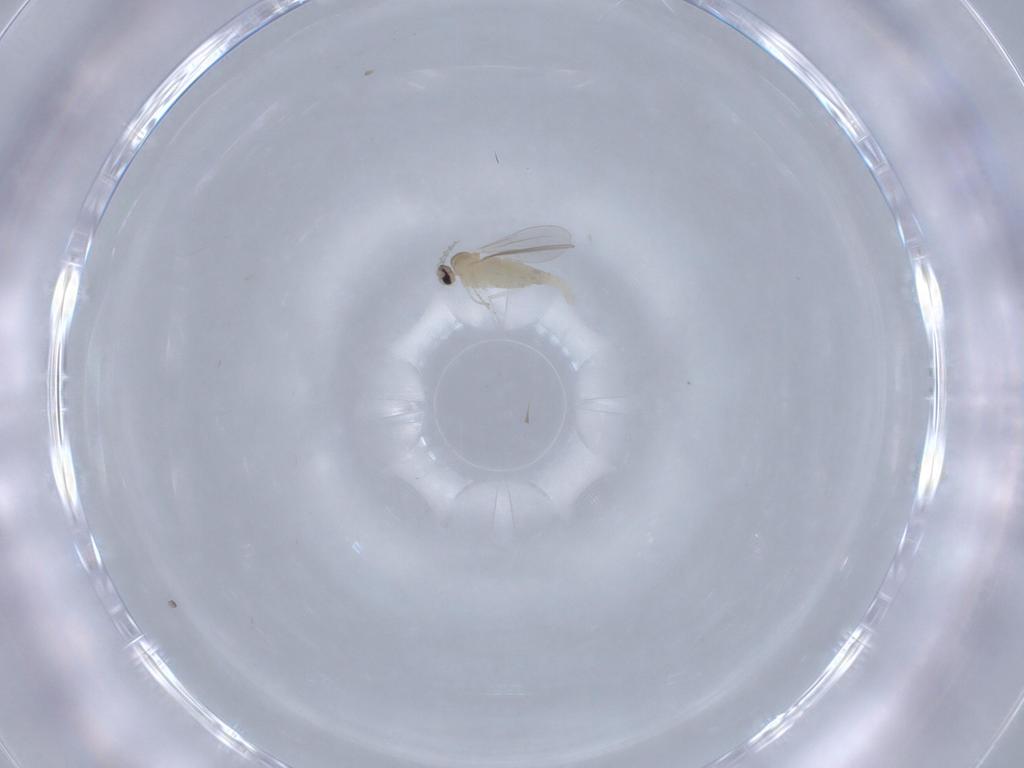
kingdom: Animalia
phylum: Arthropoda
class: Insecta
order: Diptera
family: Cecidomyiidae
